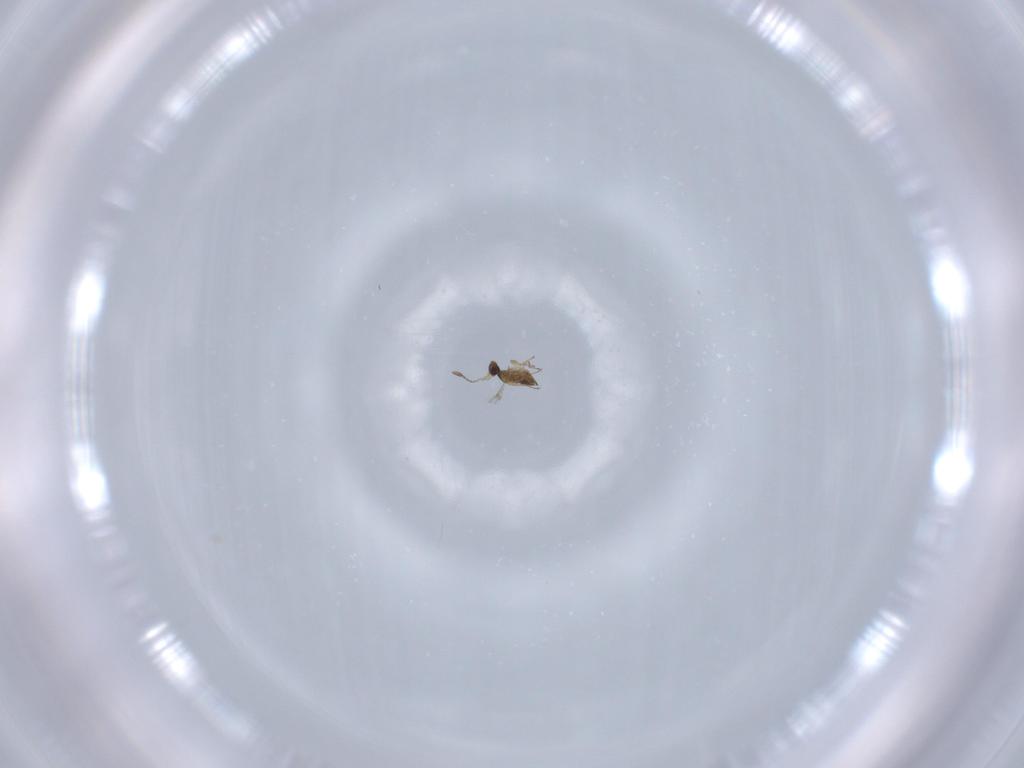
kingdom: Animalia
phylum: Arthropoda
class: Insecta
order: Hymenoptera
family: Mymaridae
